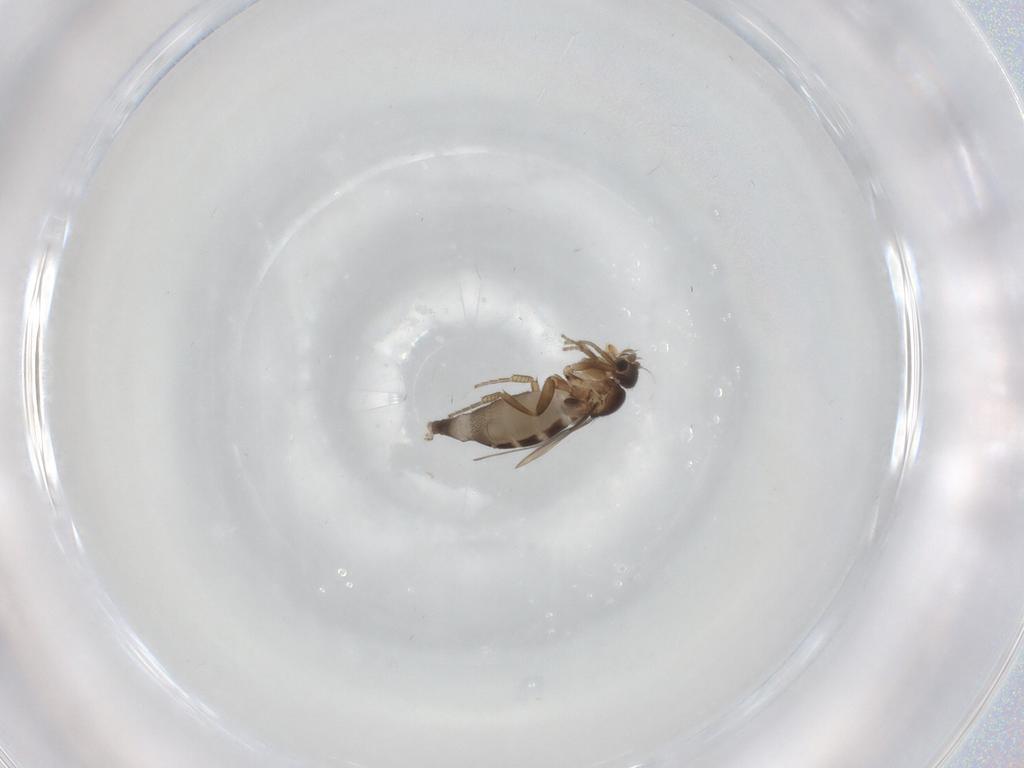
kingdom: Animalia
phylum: Arthropoda
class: Insecta
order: Diptera
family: Phoridae
